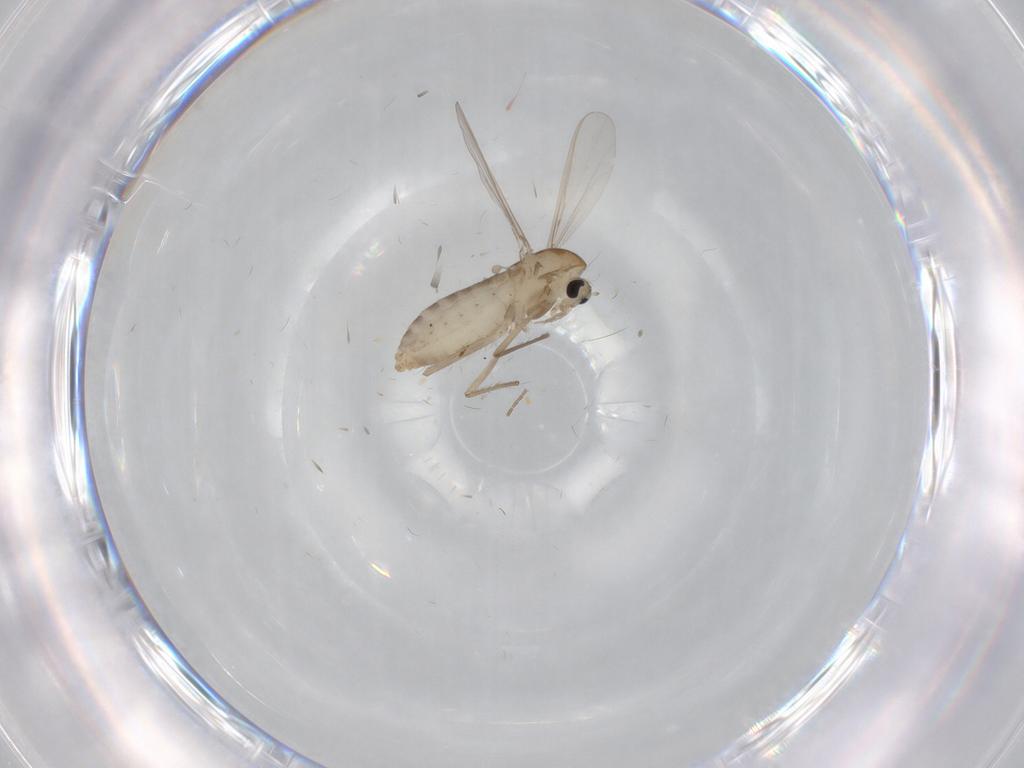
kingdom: Animalia
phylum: Arthropoda
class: Insecta
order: Diptera
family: Chironomidae
